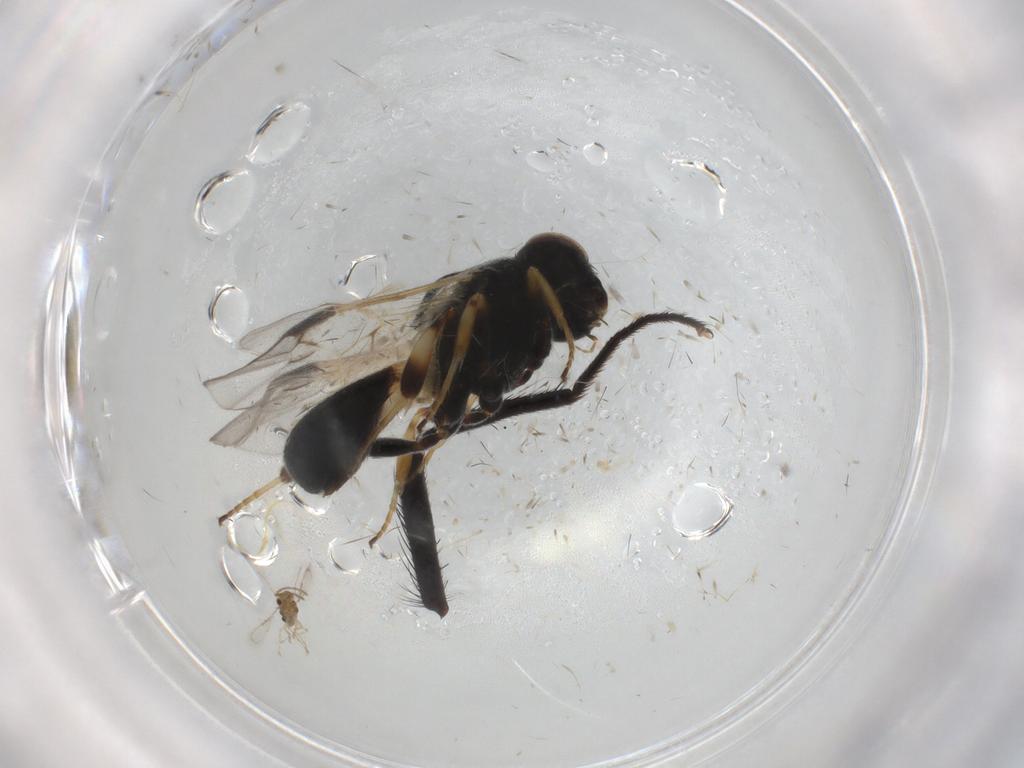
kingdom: Animalia
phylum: Arthropoda
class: Insecta
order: Hymenoptera
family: Braconidae
